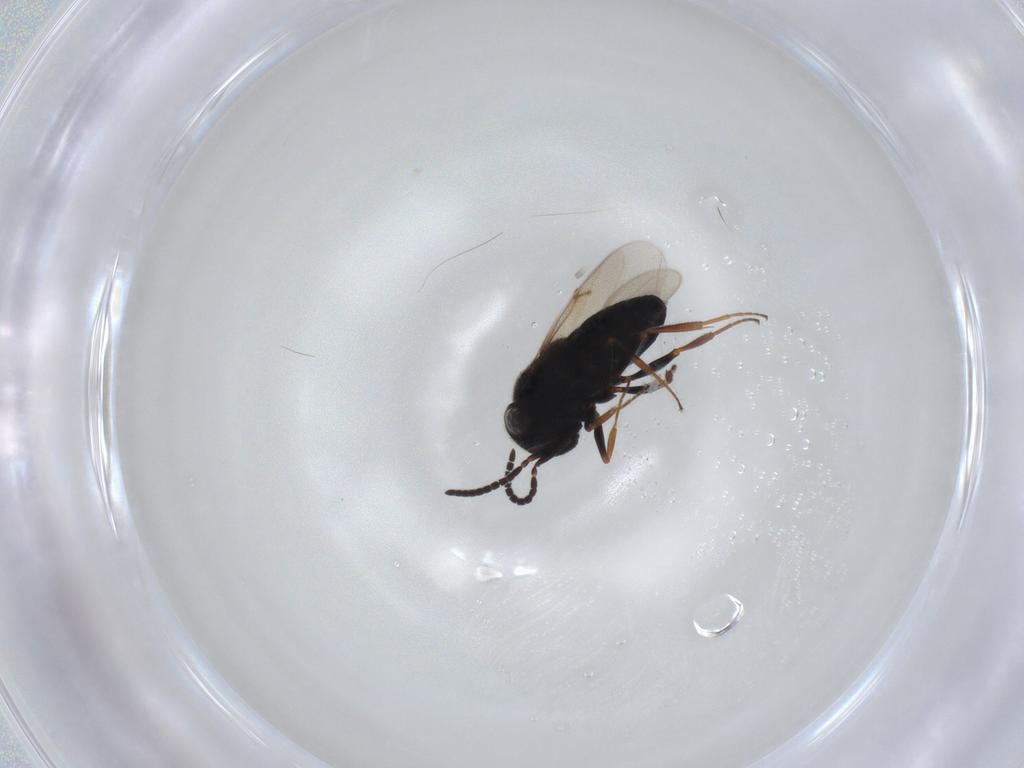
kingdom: Animalia
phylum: Arthropoda
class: Insecta
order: Hymenoptera
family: Scelionidae
